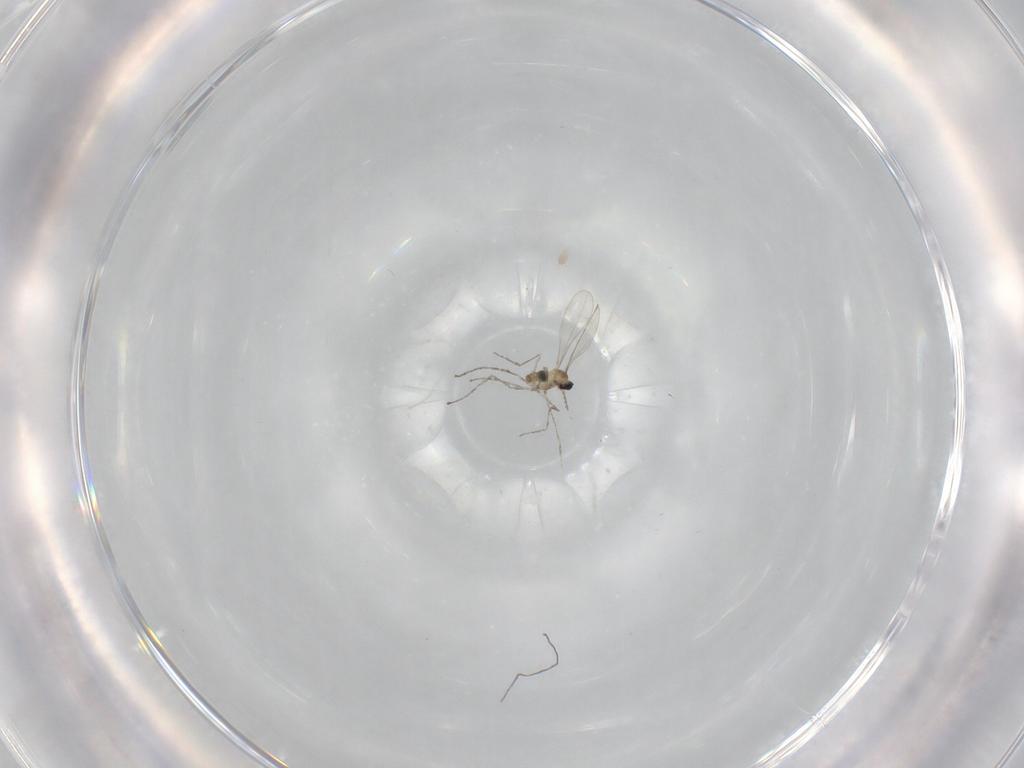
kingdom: Animalia
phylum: Arthropoda
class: Insecta
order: Diptera
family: Cecidomyiidae
